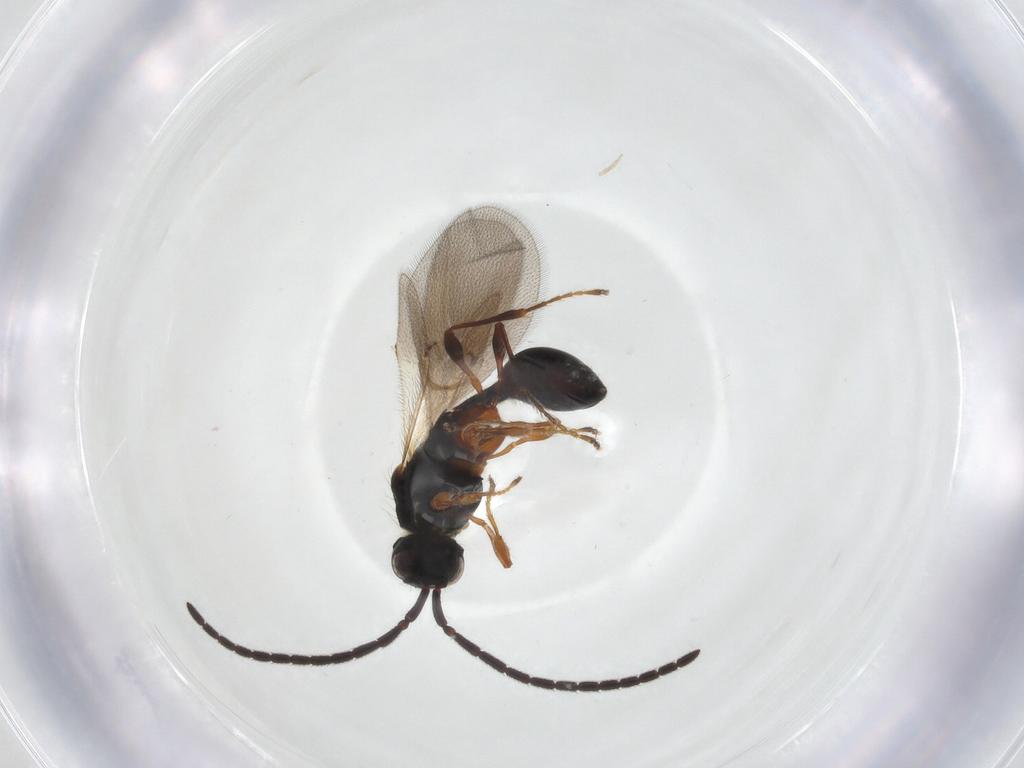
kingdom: Animalia
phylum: Arthropoda
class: Insecta
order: Hymenoptera
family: Diapriidae
